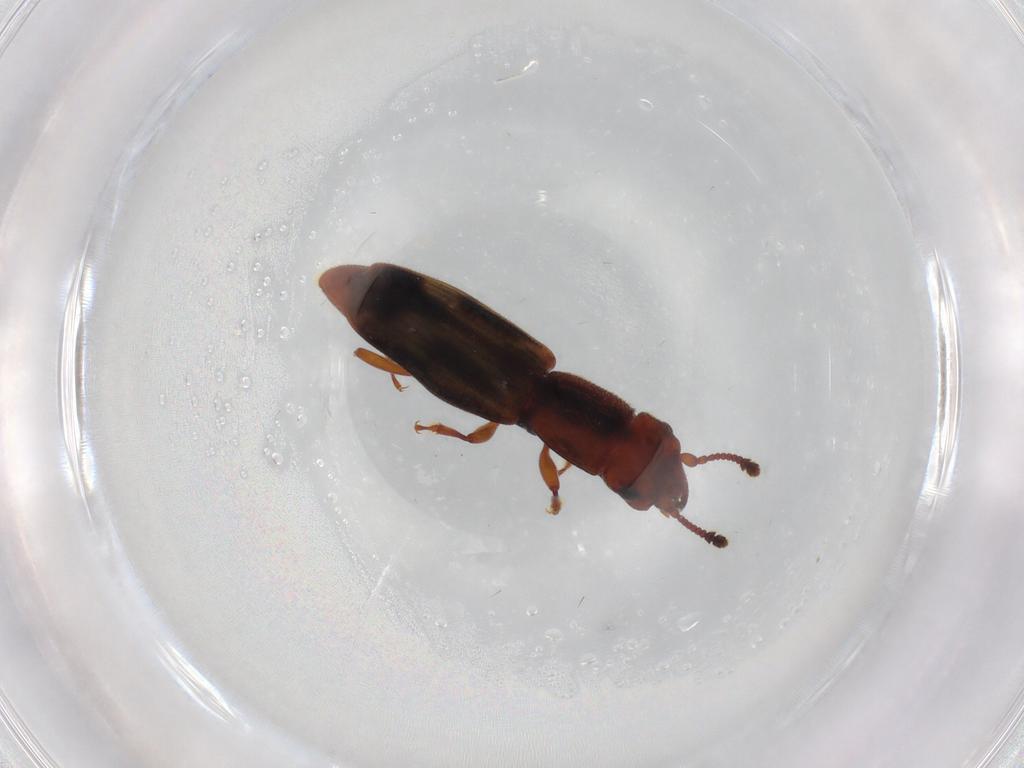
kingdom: Animalia
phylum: Arthropoda
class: Insecta
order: Coleoptera
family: Monotomidae
